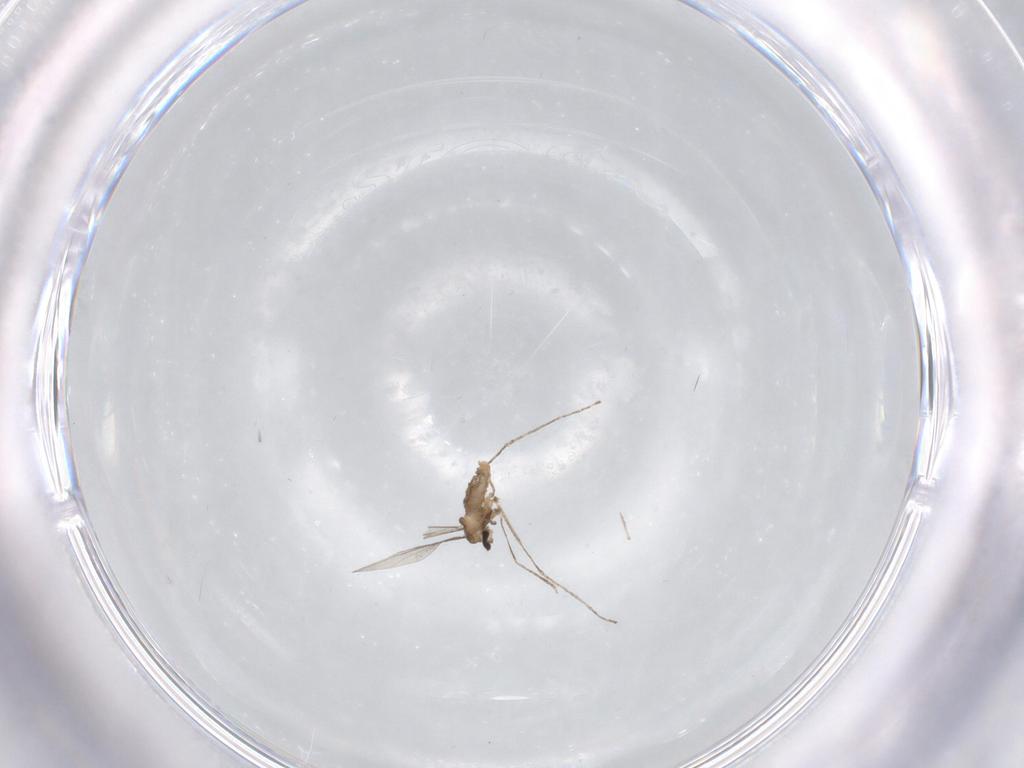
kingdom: Animalia
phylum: Arthropoda
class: Insecta
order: Diptera
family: Chironomidae
